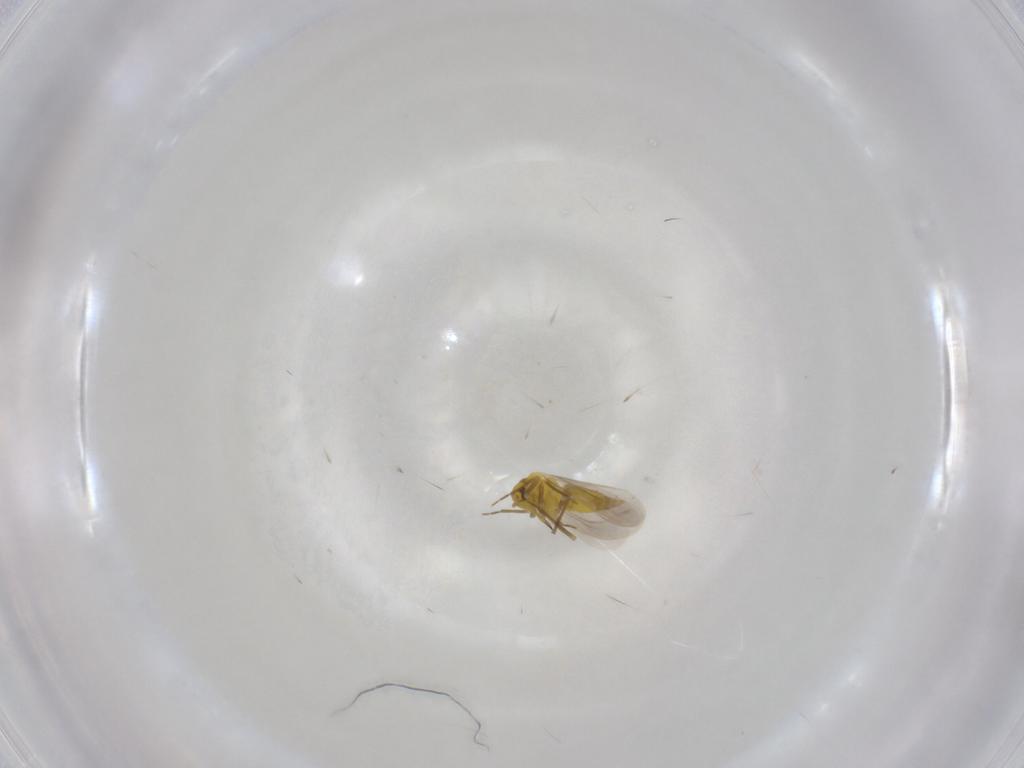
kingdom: Animalia
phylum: Arthropoda
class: Insecta
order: Hemiptera
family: Aleyrodidae
